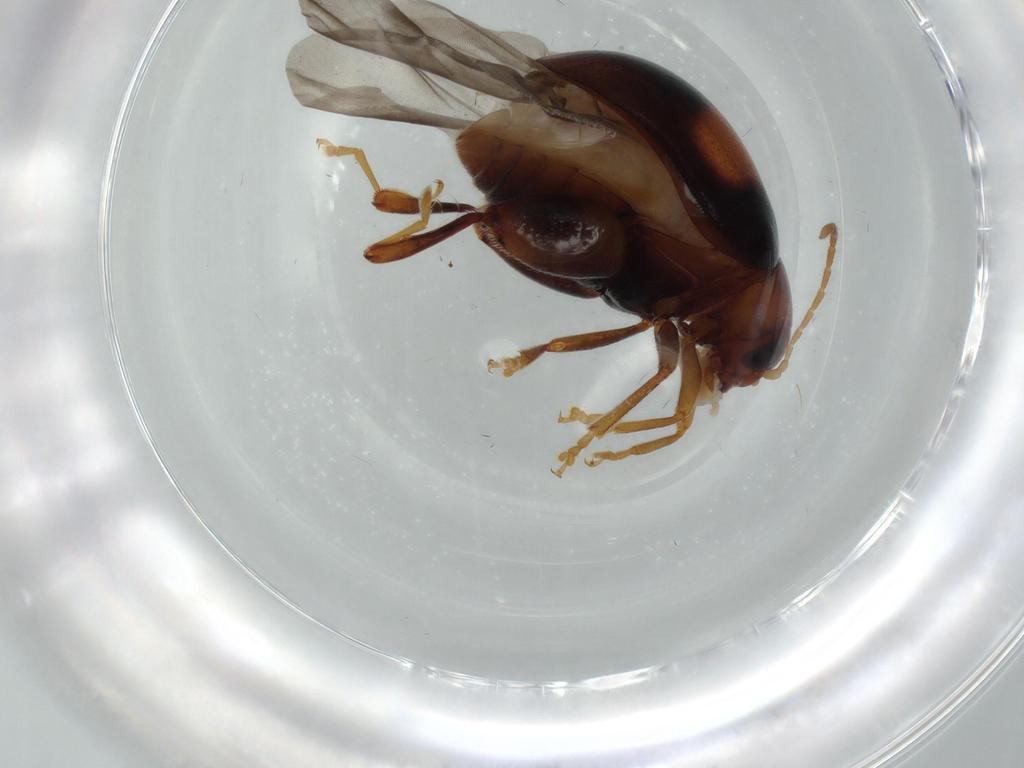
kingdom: Animalia
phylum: Arthropoda
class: Insecta
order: Coleoptera
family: Chrysomelidae
